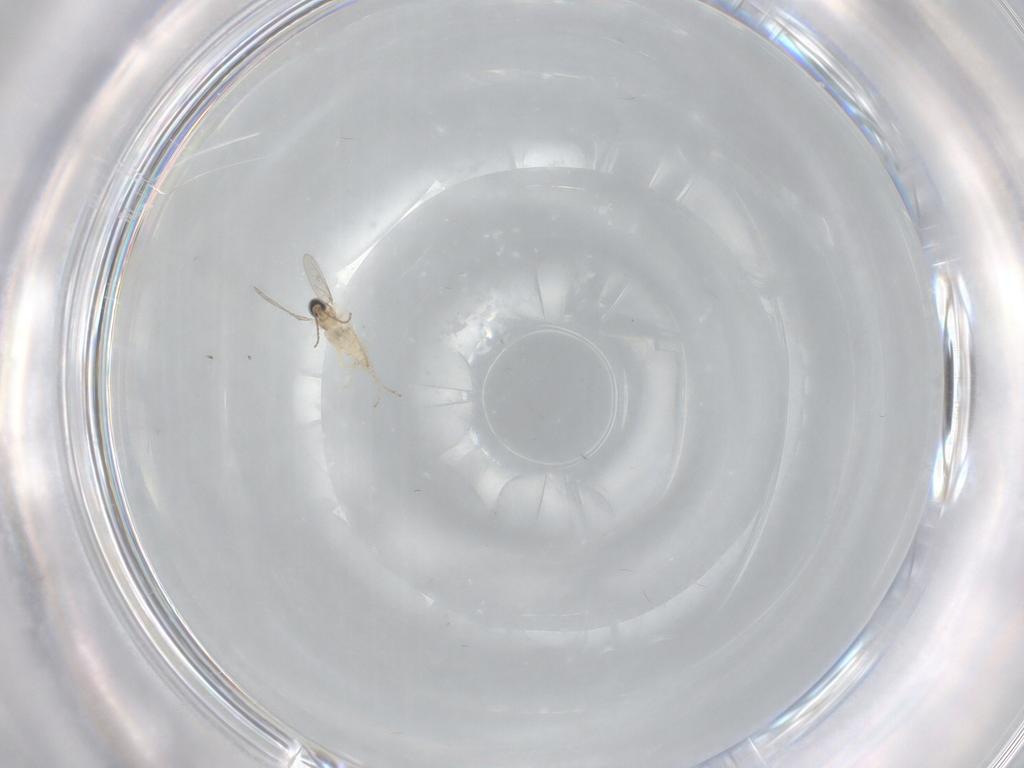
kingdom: Animalia
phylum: Arthropoda
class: Insecta
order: Diptera
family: Cecidomyiidae
